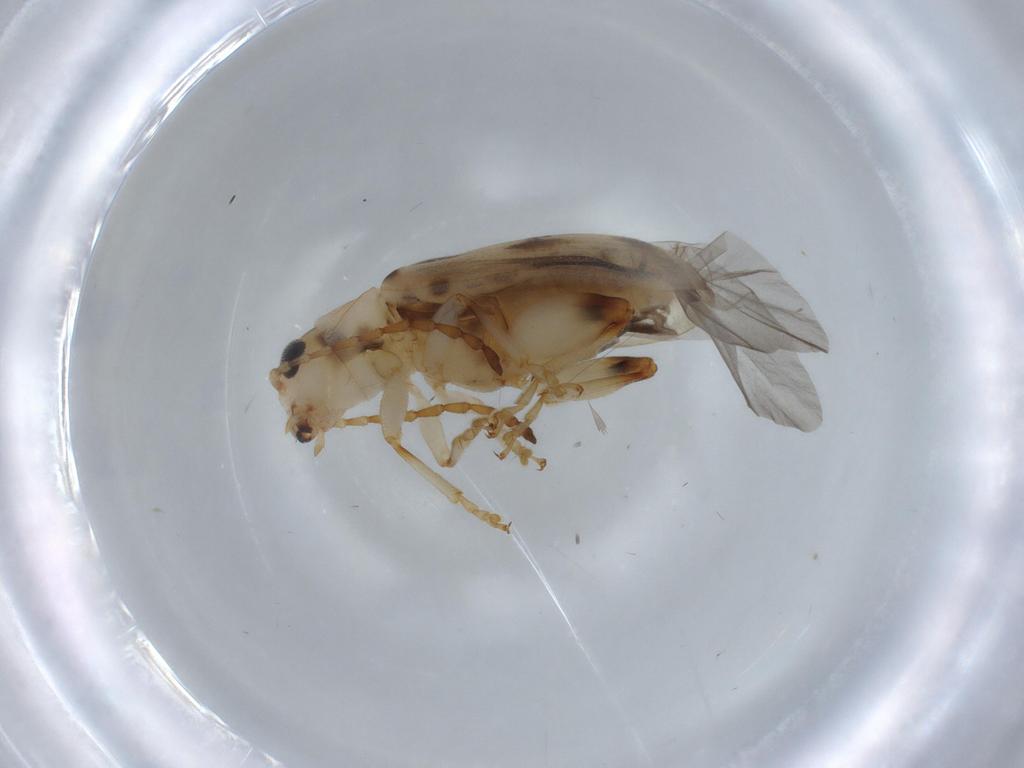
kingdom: Animalia
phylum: Arthropoda
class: Insecta
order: Coleoptera
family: Chrysomelidae
